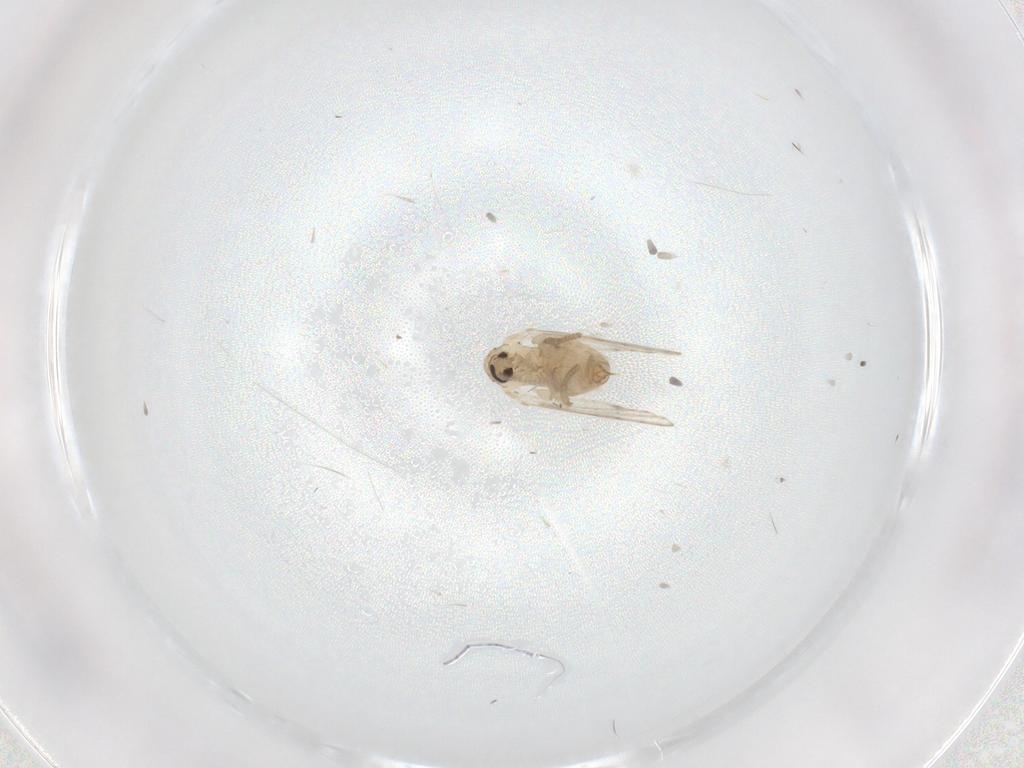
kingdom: Animalia
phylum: Arthropoda
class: Insecta
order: Diptera
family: Psychodidae
